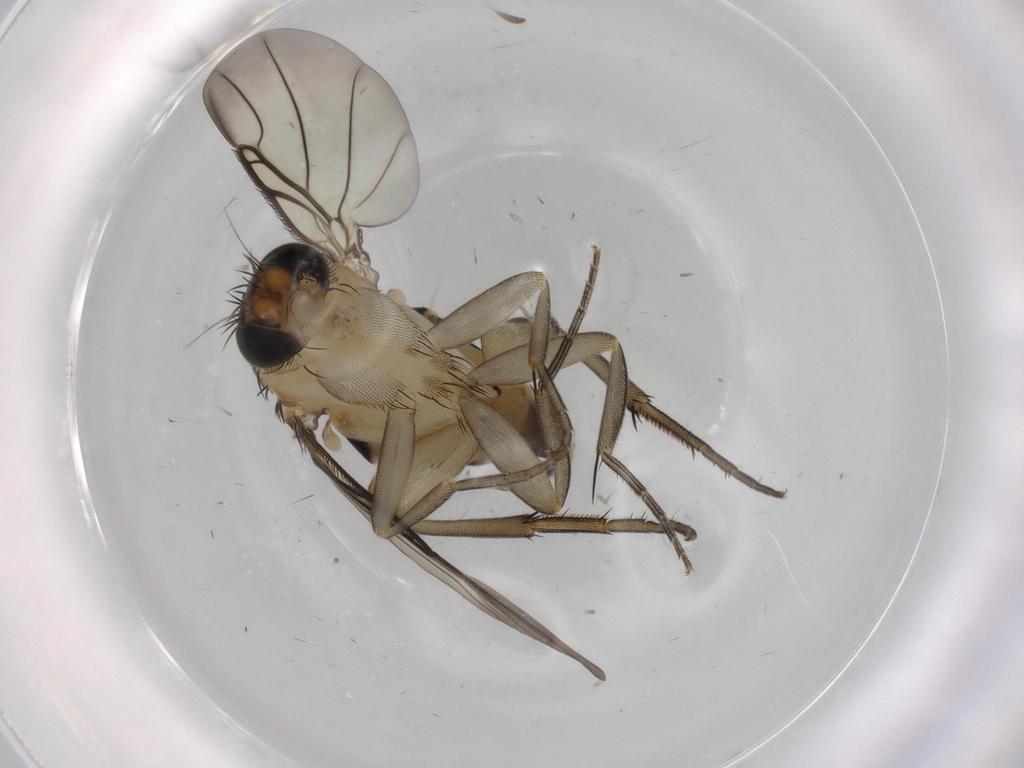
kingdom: Animalia
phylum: Arthropoda
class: Insecta
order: Diptera
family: Phoridae
